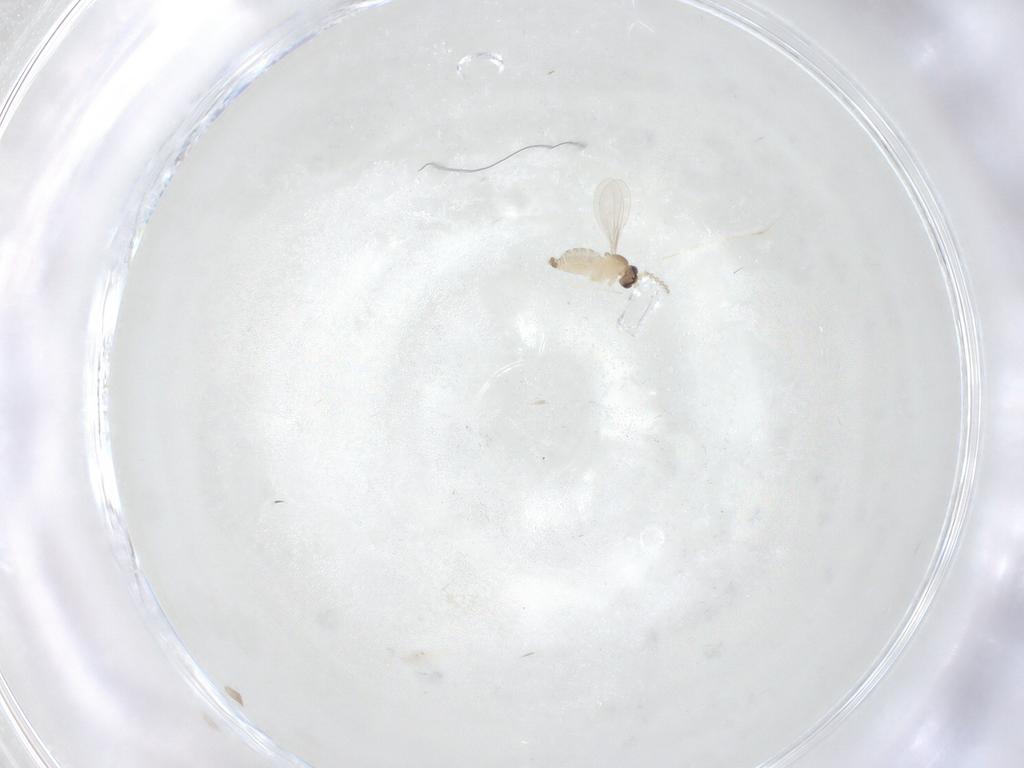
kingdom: Animalia
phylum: Arthropoda
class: Insecta
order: Diptera
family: Cecidomyiidae
